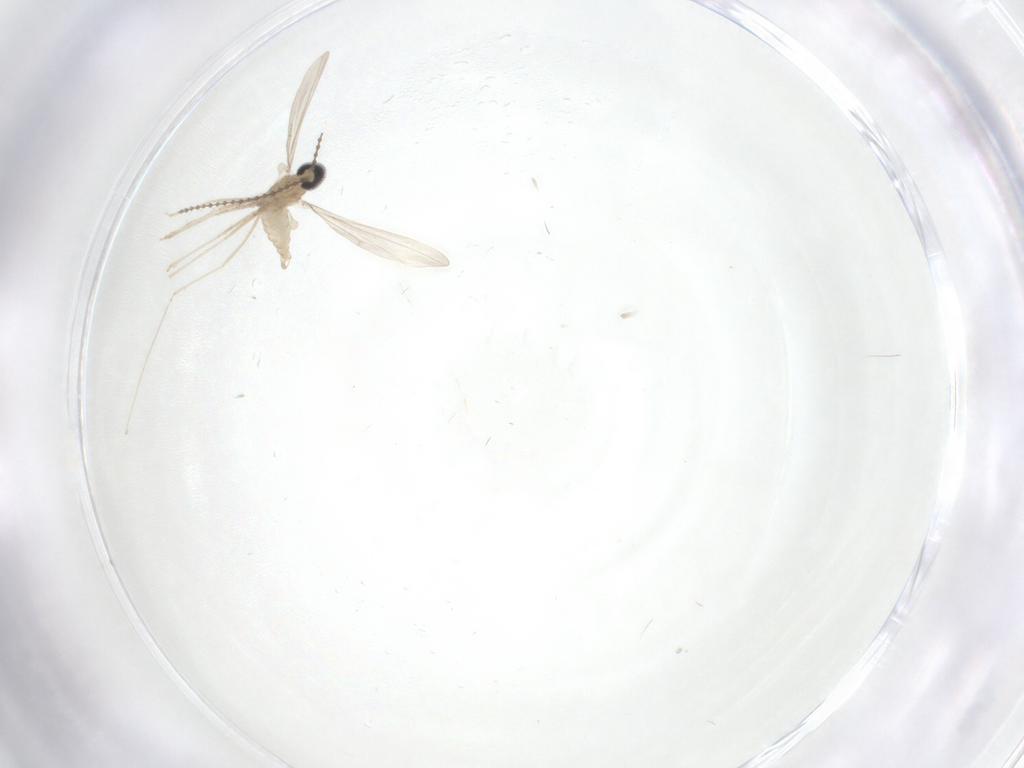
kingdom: Animalia
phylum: Arthropoda
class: Insecta
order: Diptera
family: Cecidomyiidae
